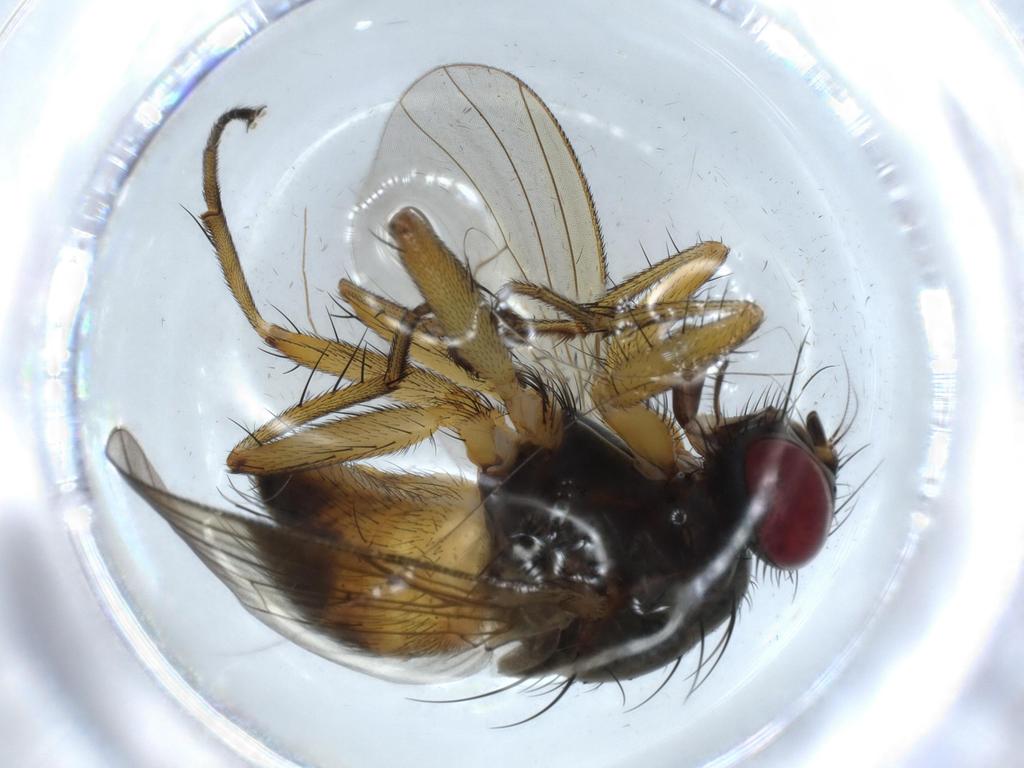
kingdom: Animalia
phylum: Arthropoda
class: Insecta
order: Diptera
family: Muscidae
